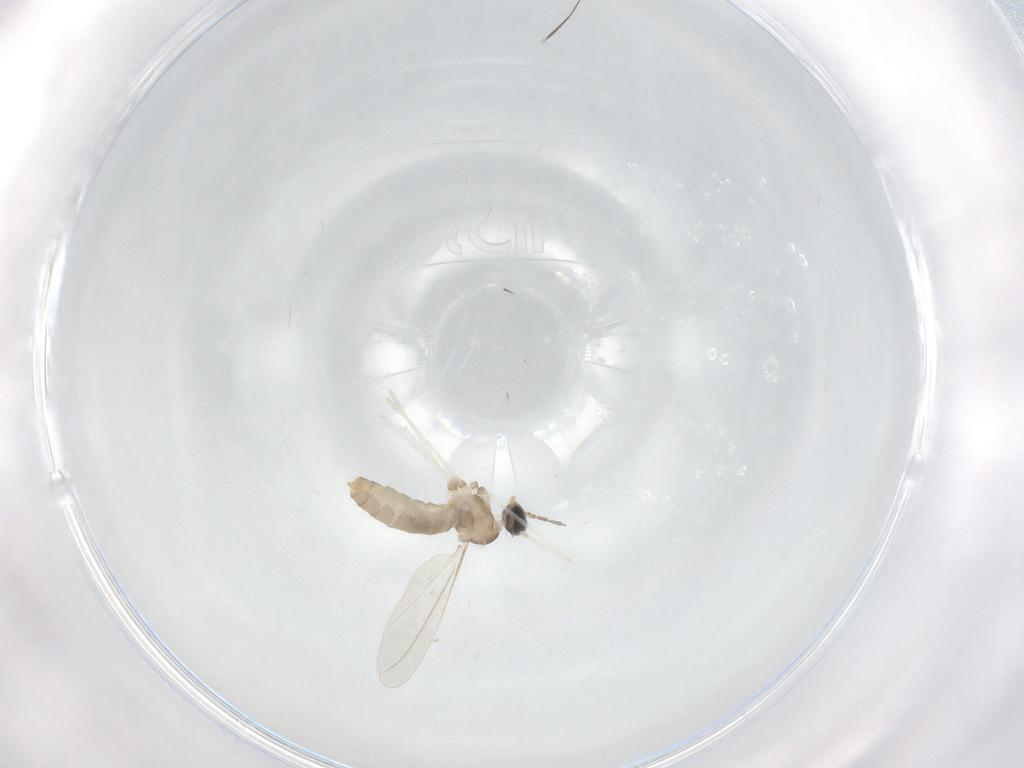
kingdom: Animalia
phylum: Arthropoda
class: Insecta
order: Diptera
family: Cecidomyiidae
